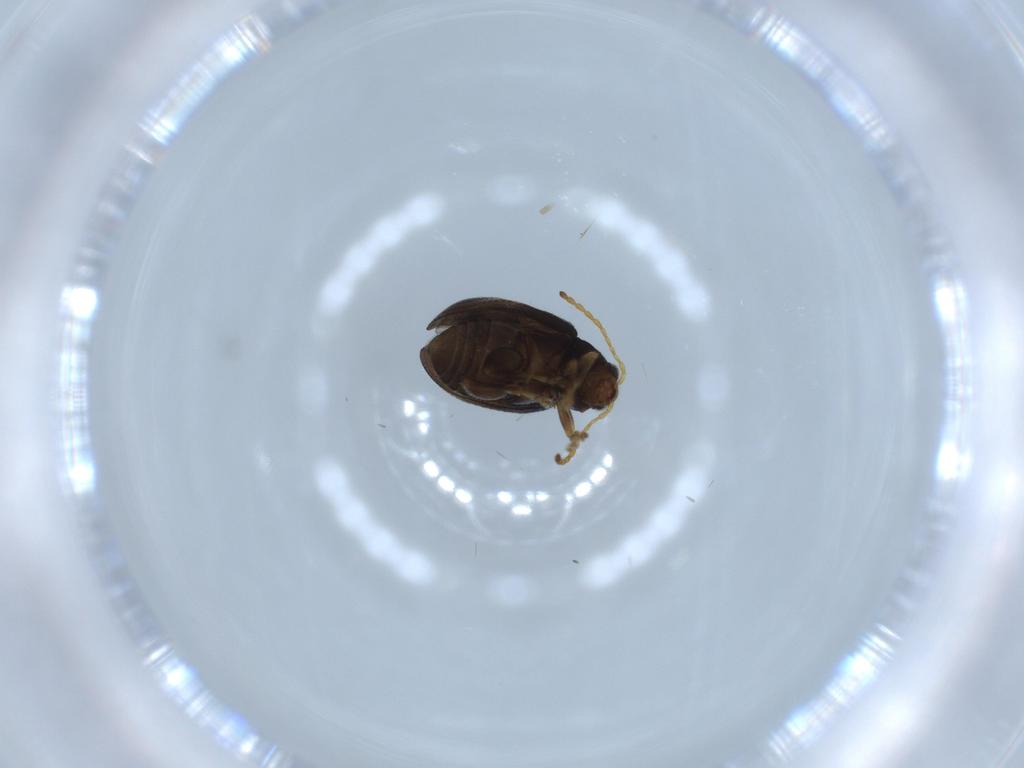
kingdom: Animalia
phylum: Arthropoda
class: Insecta
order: Coleoptera
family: Chrysomelidae
